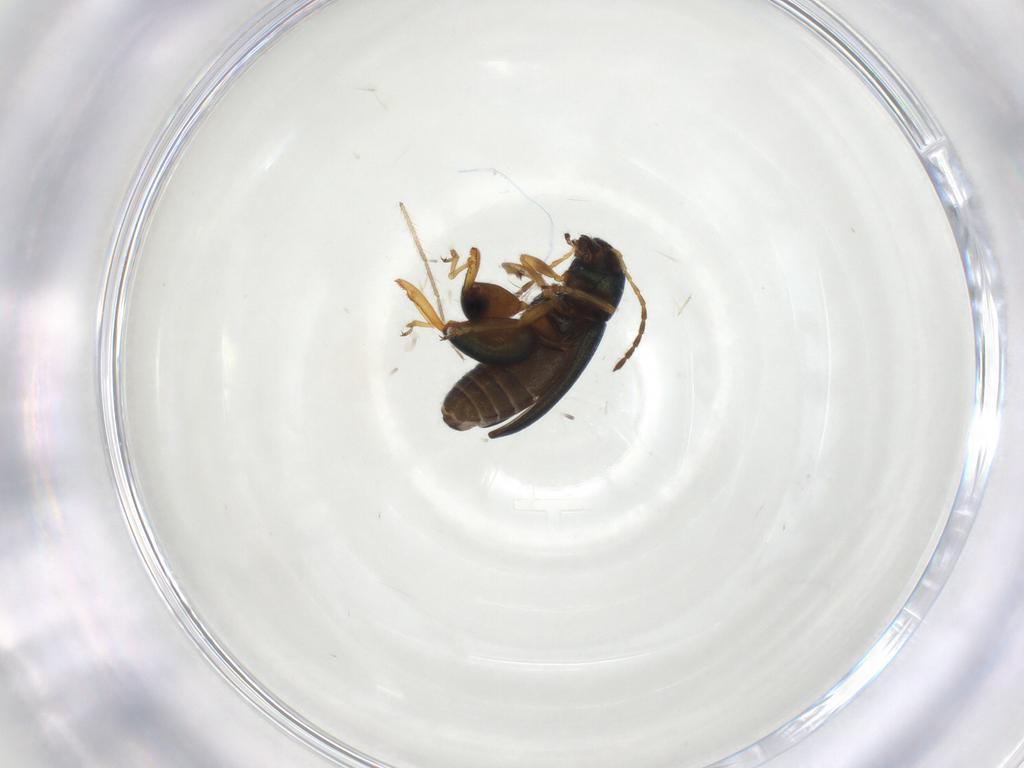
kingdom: Animalia
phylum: Arthropoda
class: Insecta
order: Coleoptera
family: Chrysomelidae
